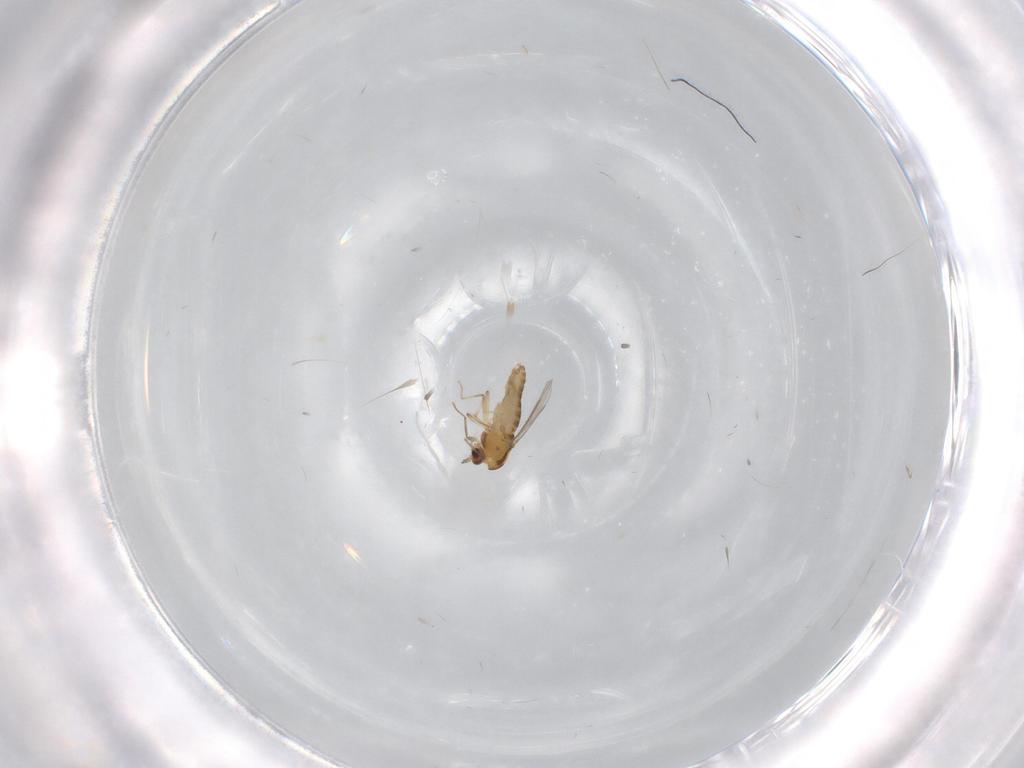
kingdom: Animalia
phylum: Arthropoda
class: Insecta
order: Diptera
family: Chironomidae
